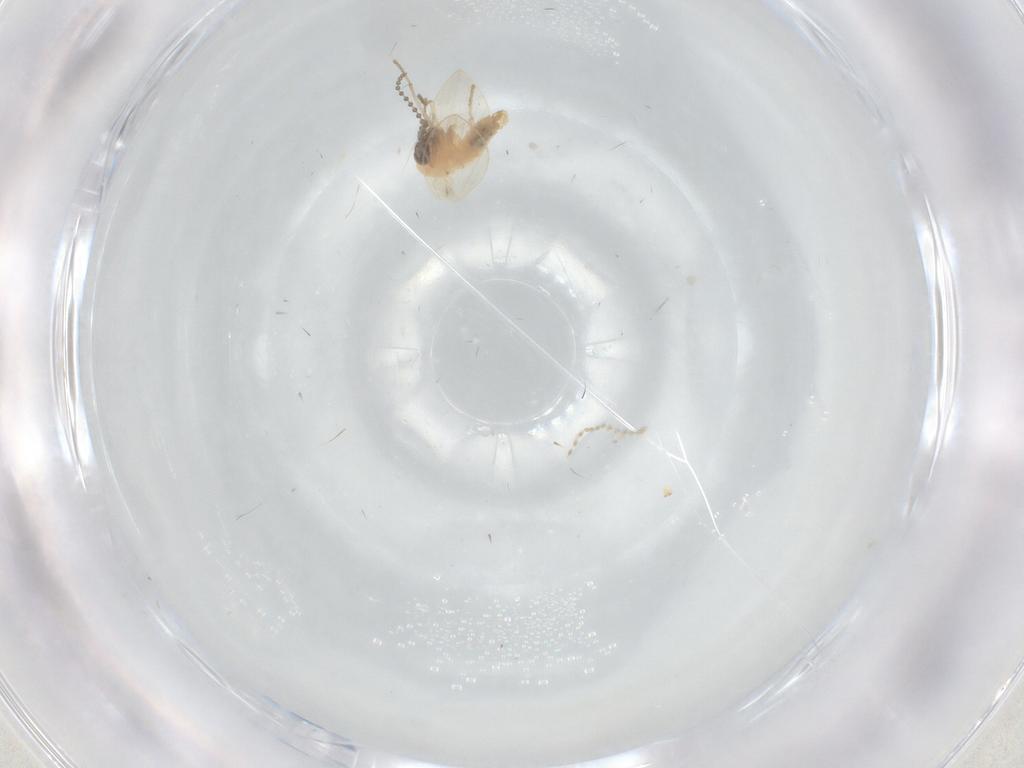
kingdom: Animalia
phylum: Arthropoda
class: Insecta
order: Diptera
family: Psychodidae
